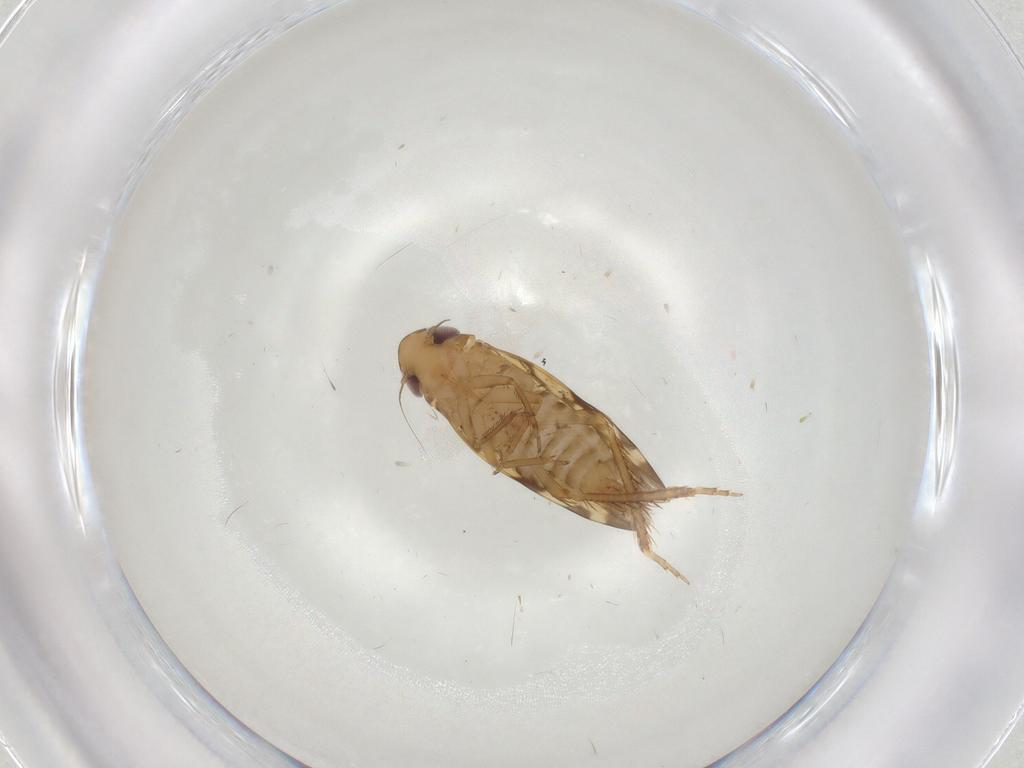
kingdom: Animalia
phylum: Arthropoda
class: Insecta
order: Hemiptera
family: Cicadellidae
